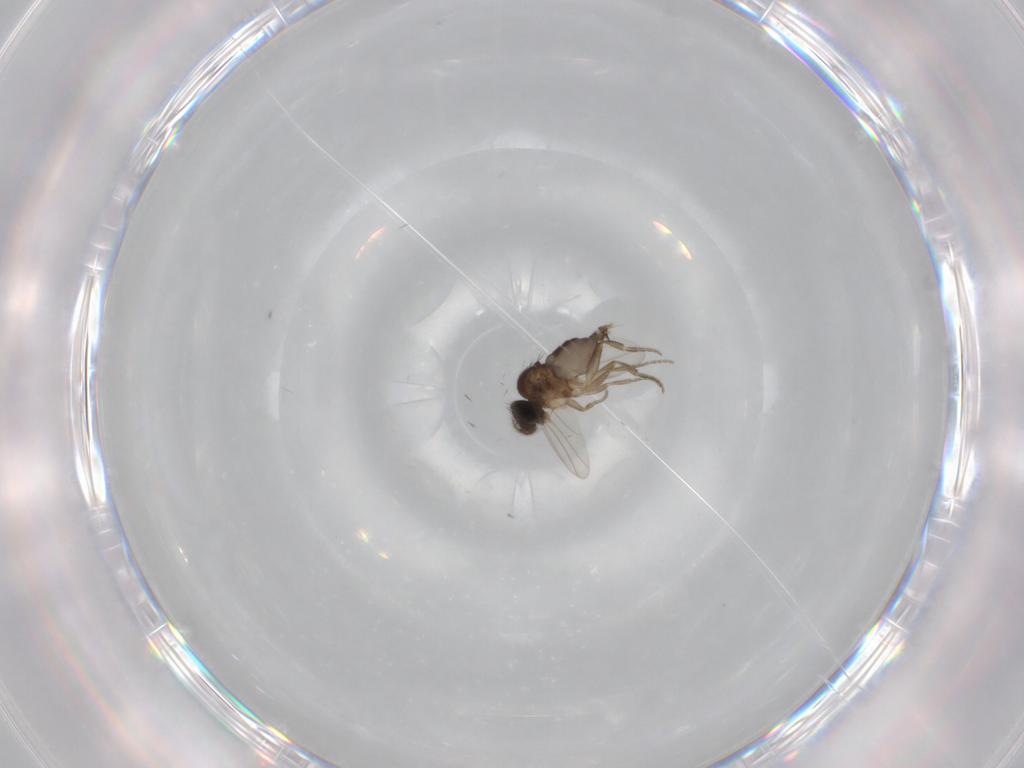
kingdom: Animalia
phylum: Arthropoda
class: Insecta
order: Diptera
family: Phoridae
